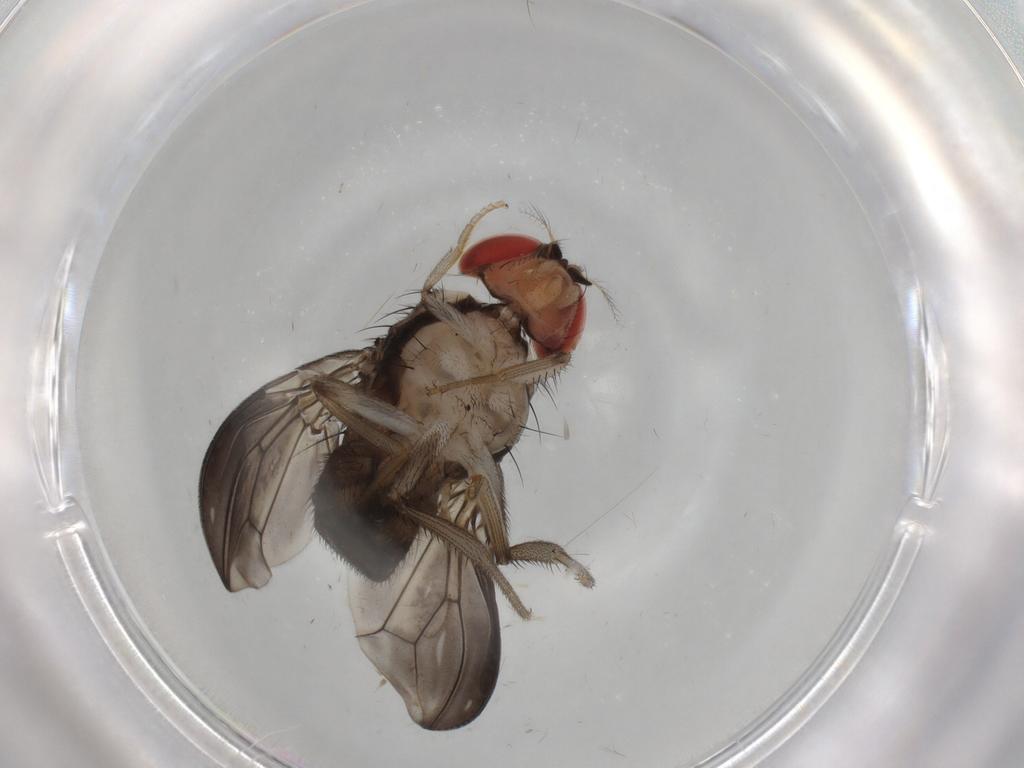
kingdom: Animalia
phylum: Arthropoda
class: Insecta
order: Diptera
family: Drosophilidae
